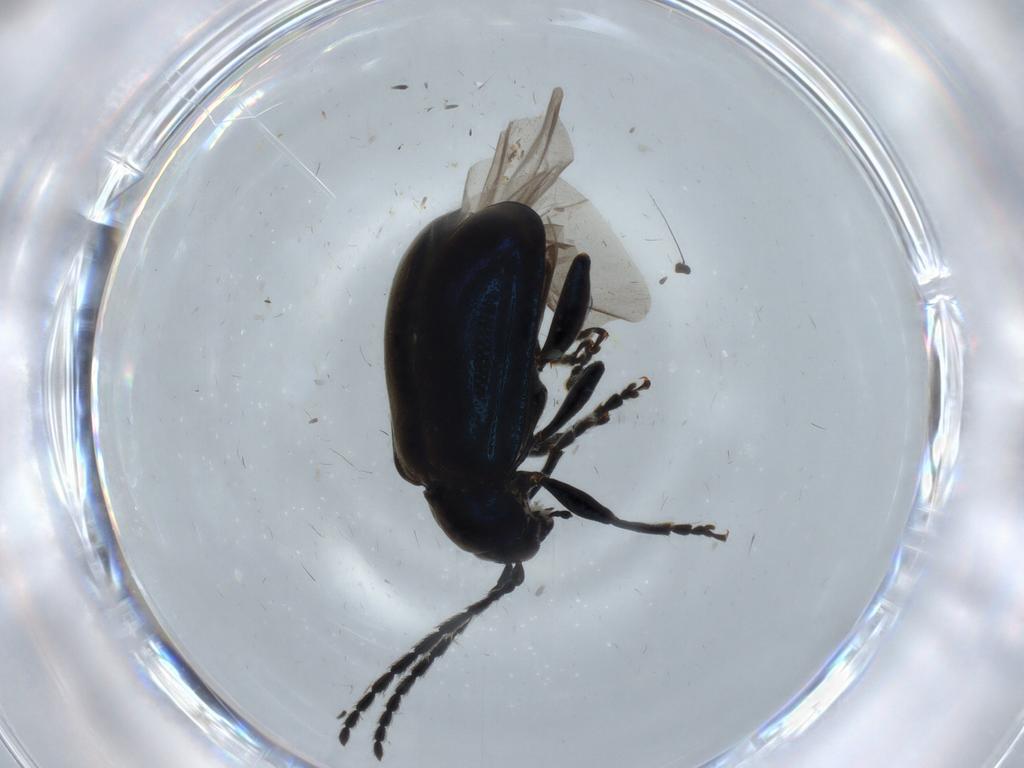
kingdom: Animalia
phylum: Arthropoda
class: Insecta
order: Coleoptera
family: Chrysomelidae
